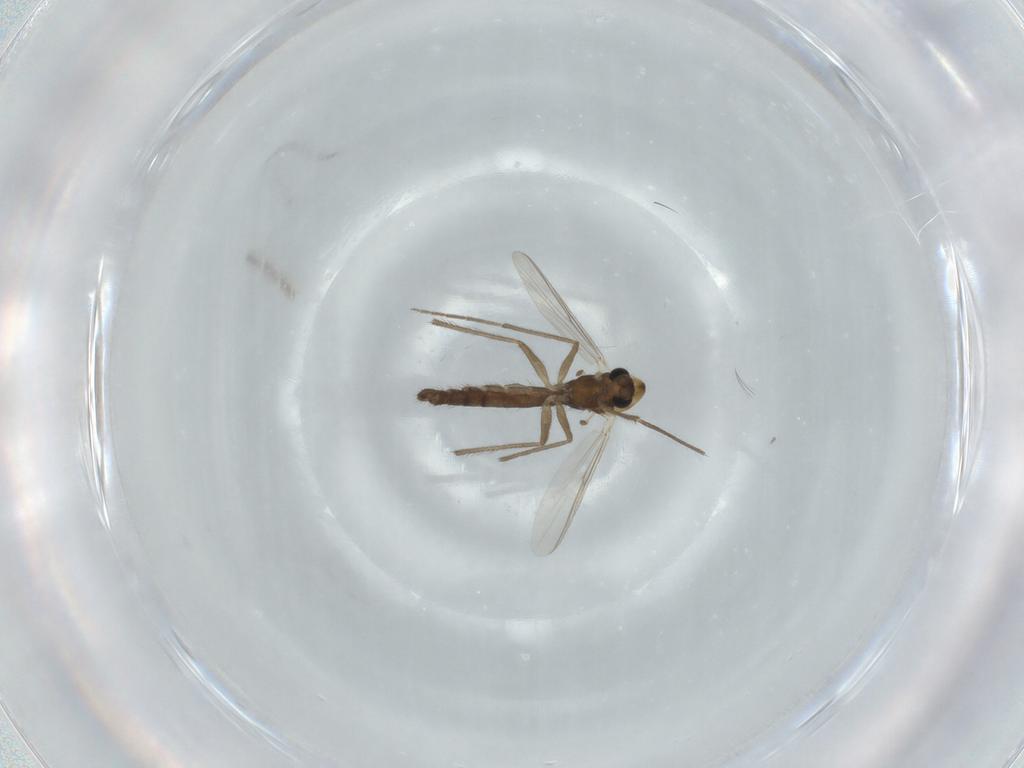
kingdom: Animalia
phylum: Arthropoda
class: Insecta
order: Diptera
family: Chironomidae
